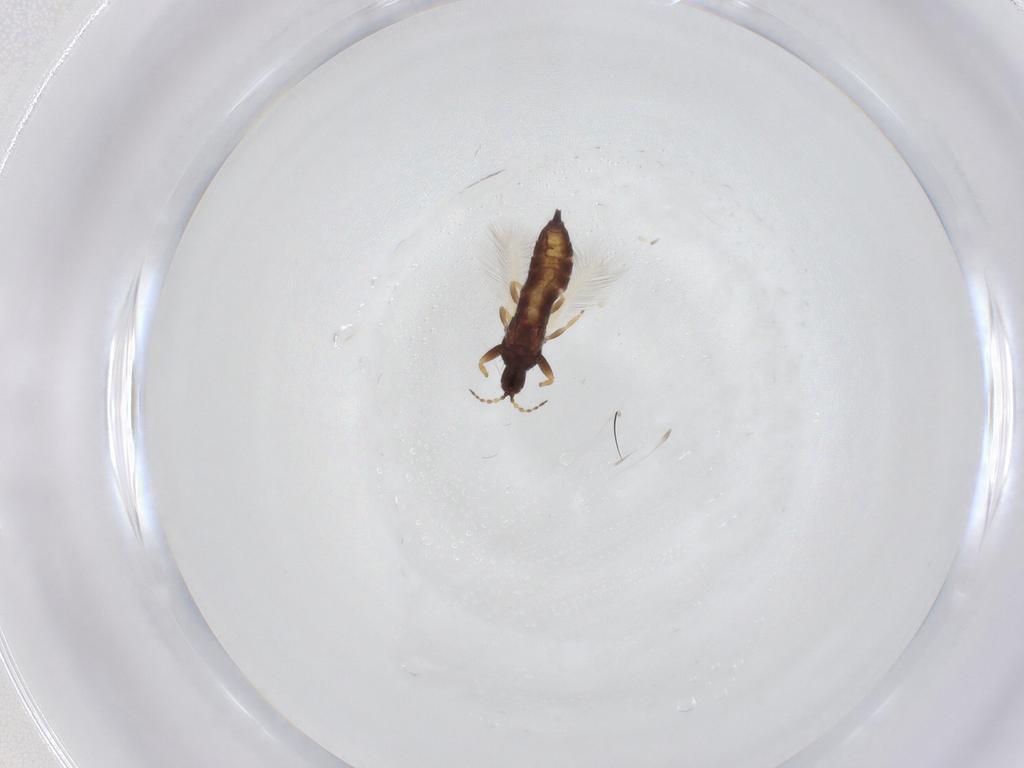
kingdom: Animalia
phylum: Arthropoda
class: Insecta
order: Thysanoptera
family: Phlaeothripidae
